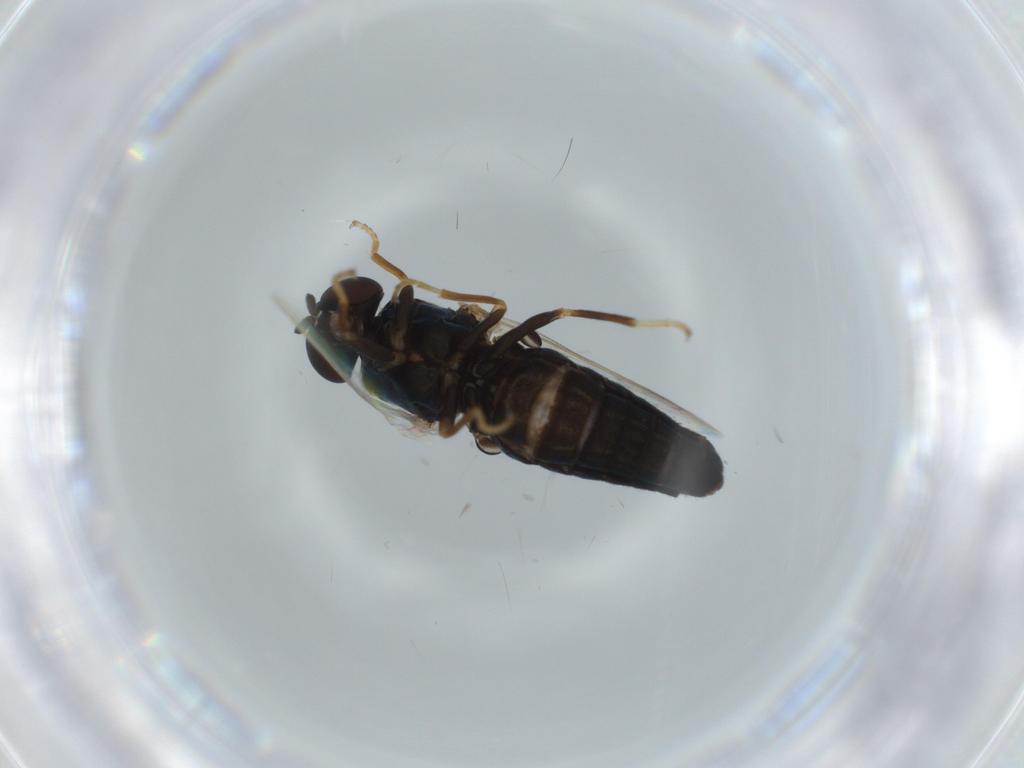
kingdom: Animalia
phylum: Arthropoda
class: Insecta
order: Diptera
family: Scenopinidae
